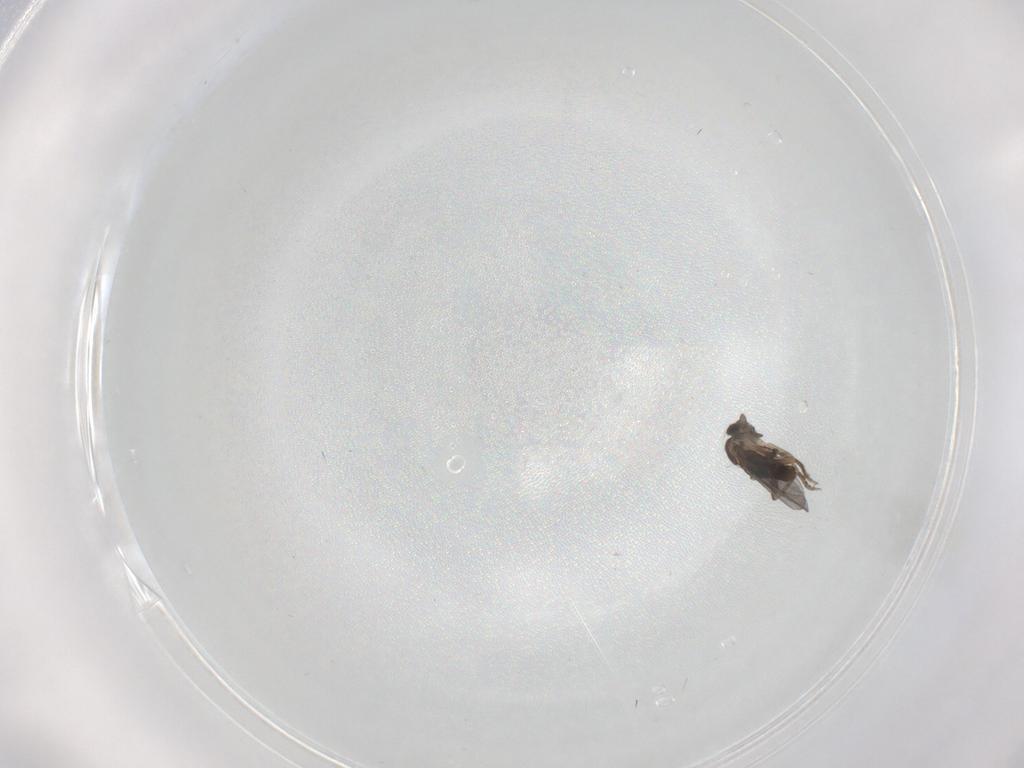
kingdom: Animalia
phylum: Arthropoda
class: Insecta
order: Diptera
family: Phoridae
